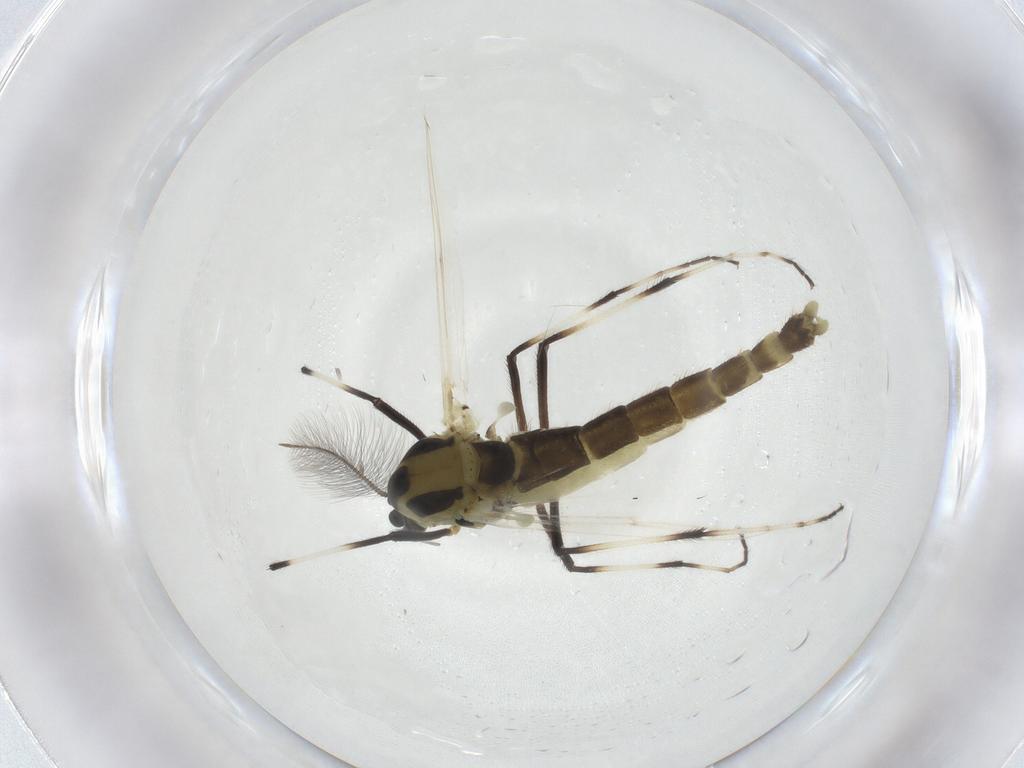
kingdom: Animalia
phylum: Arthropoda
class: Insecta
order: Diptera
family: Chironomidae
